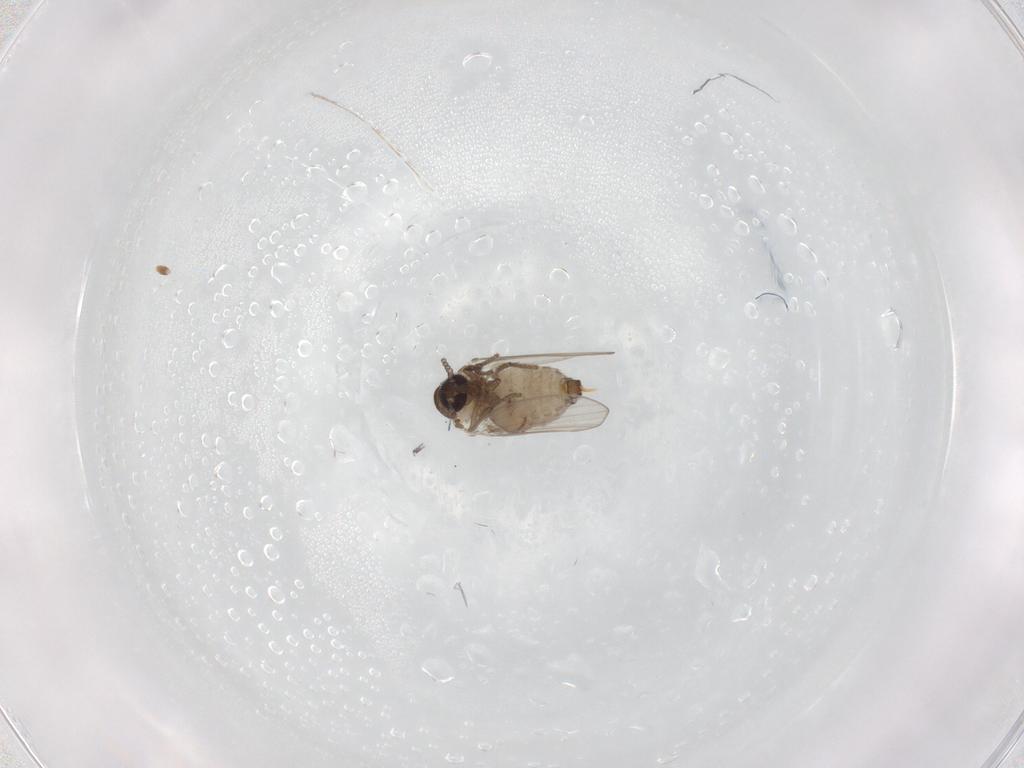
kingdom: Animalia
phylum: Arthropoda
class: Insecta
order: Diptera
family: Psychodidae
